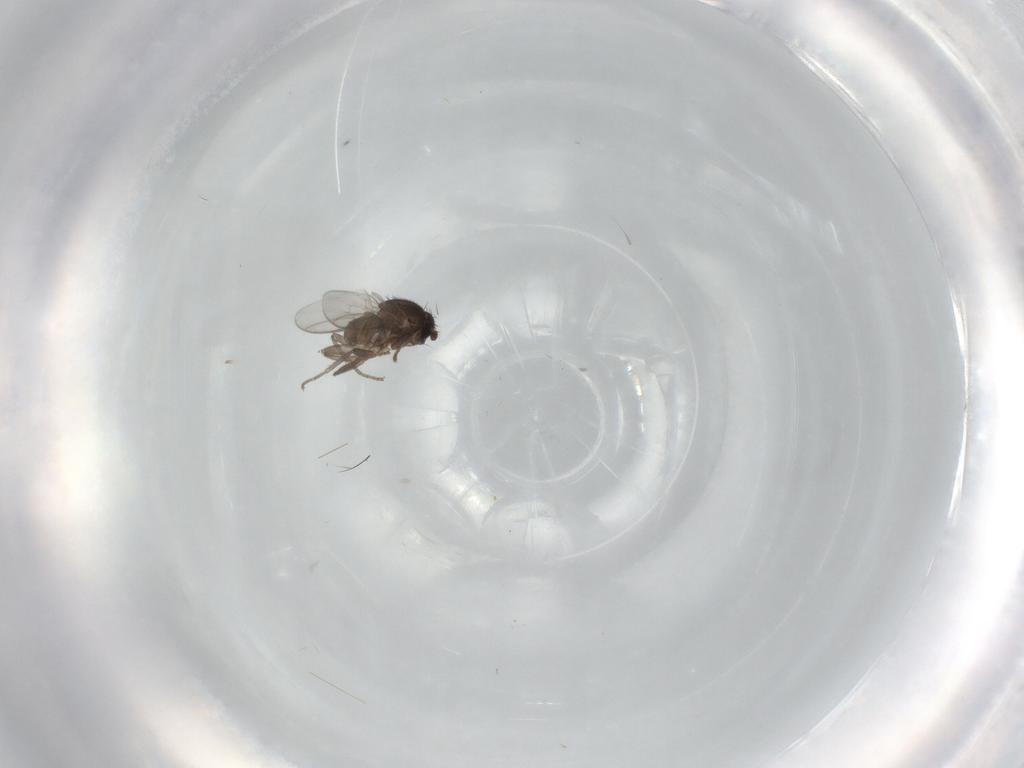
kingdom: Animalia
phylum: Arthropoda
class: Insecta
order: Diptera
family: Sphaeroceridae
